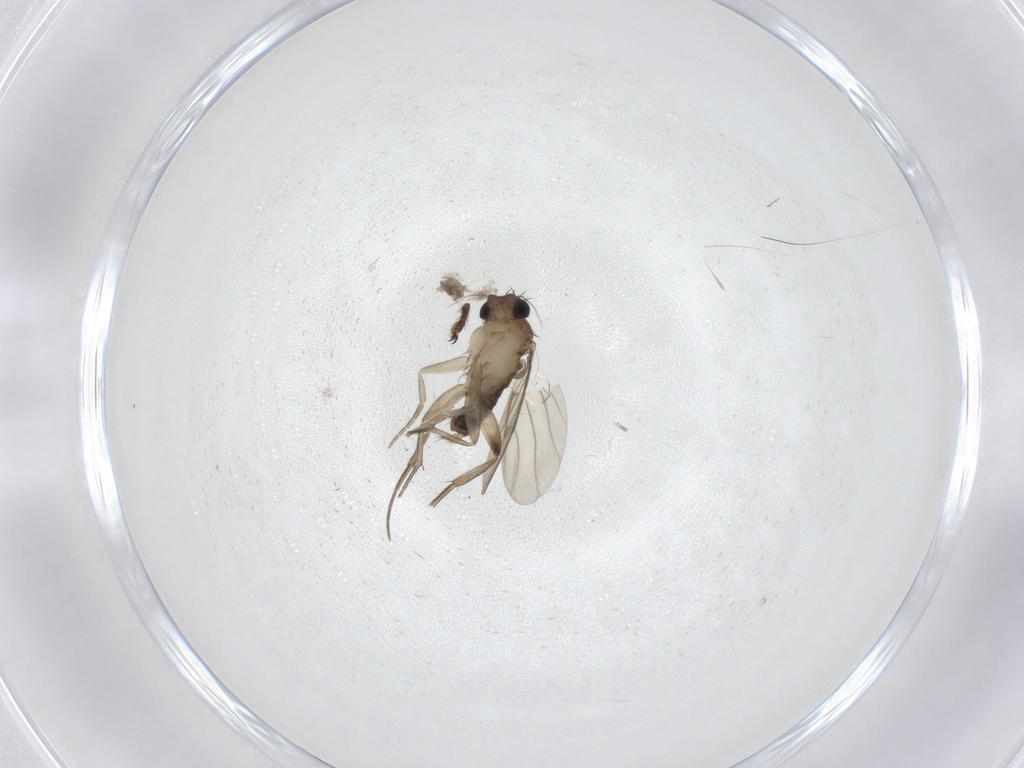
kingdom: Animalia
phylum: Arthropoda
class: Insecta
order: Diptera
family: Phoridae
